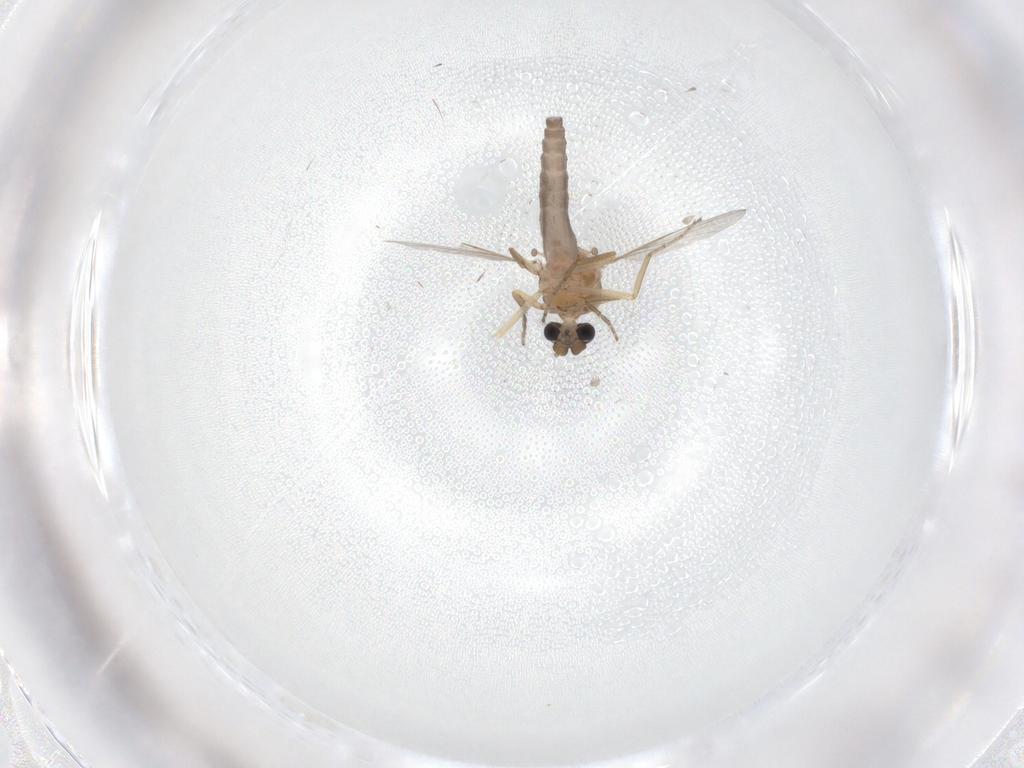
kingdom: Animalia
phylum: Arthropoda
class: Insecta
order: Diptera
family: Ceratopogonidae
